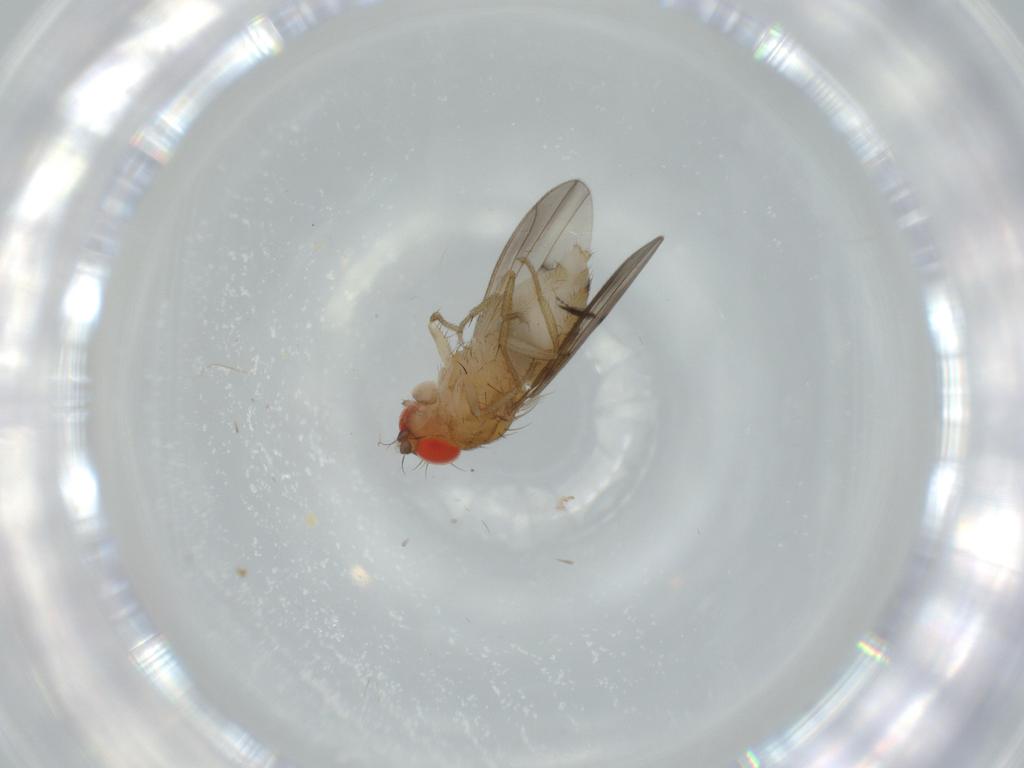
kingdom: Animalia
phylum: Arthropoda
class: Insecta
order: Diptera
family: Drosophilidae
